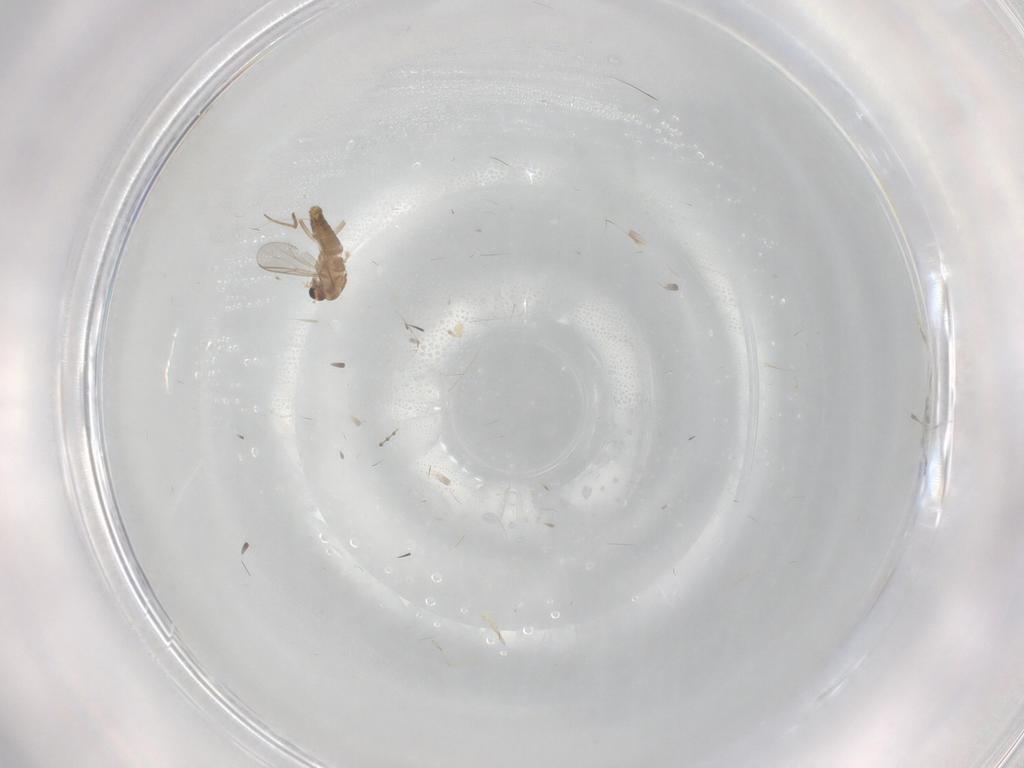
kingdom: Animalia
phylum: Arthropoda
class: Insecta
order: Diptera
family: Chironomidae
